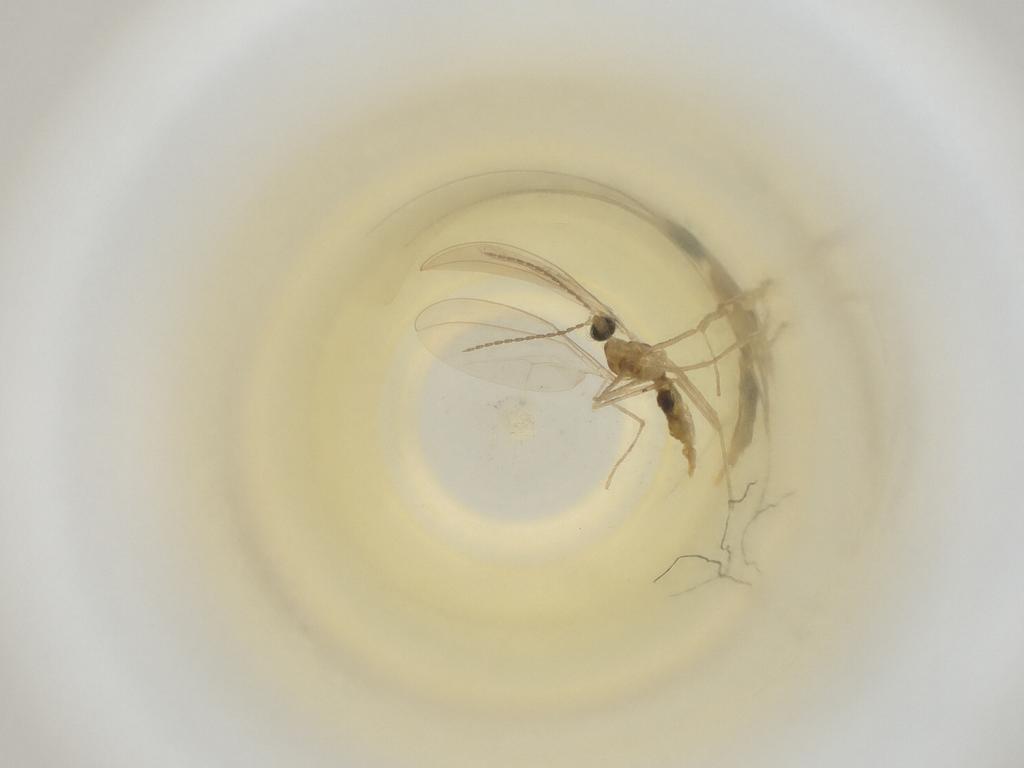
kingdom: Animalia
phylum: Arthropoda
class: Insecta
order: Diptera
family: Cecidomyiidae
